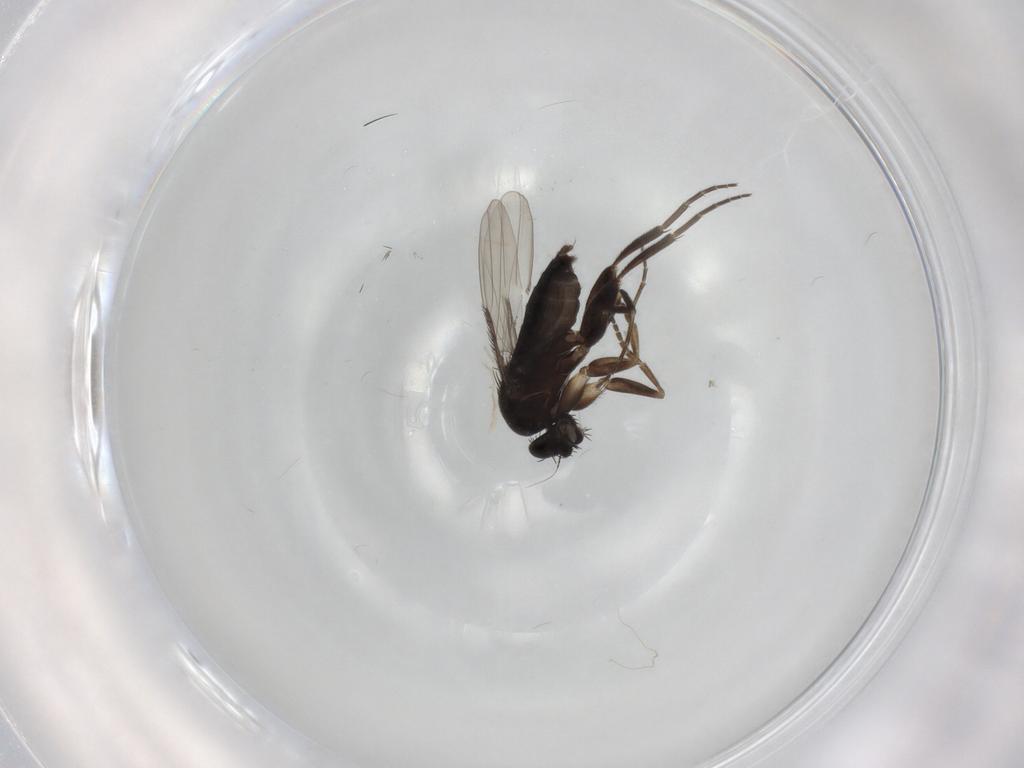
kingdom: Animalia
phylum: Arthropoda
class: Insecta
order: Diptera
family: Phoridae
